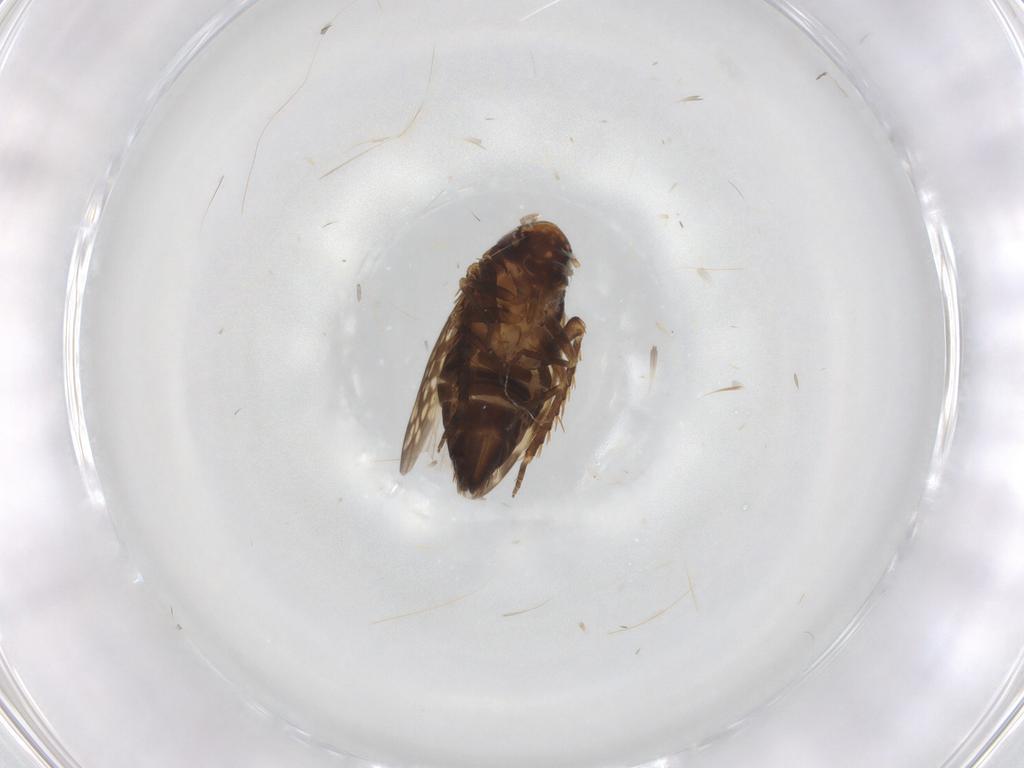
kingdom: Animalia
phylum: Arthropoda
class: Insecta
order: Hemiptera
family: Cicadellidae
